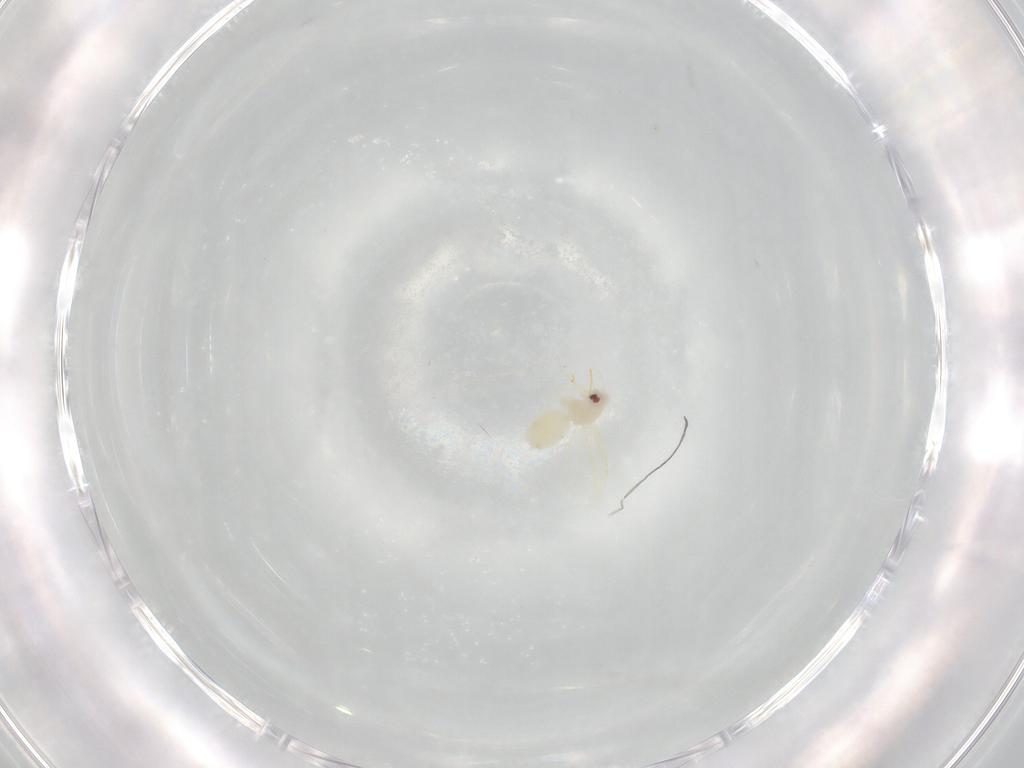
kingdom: Animalia
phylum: Arthropoda
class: Insecta
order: Hemiptera
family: Aleyrodidae
